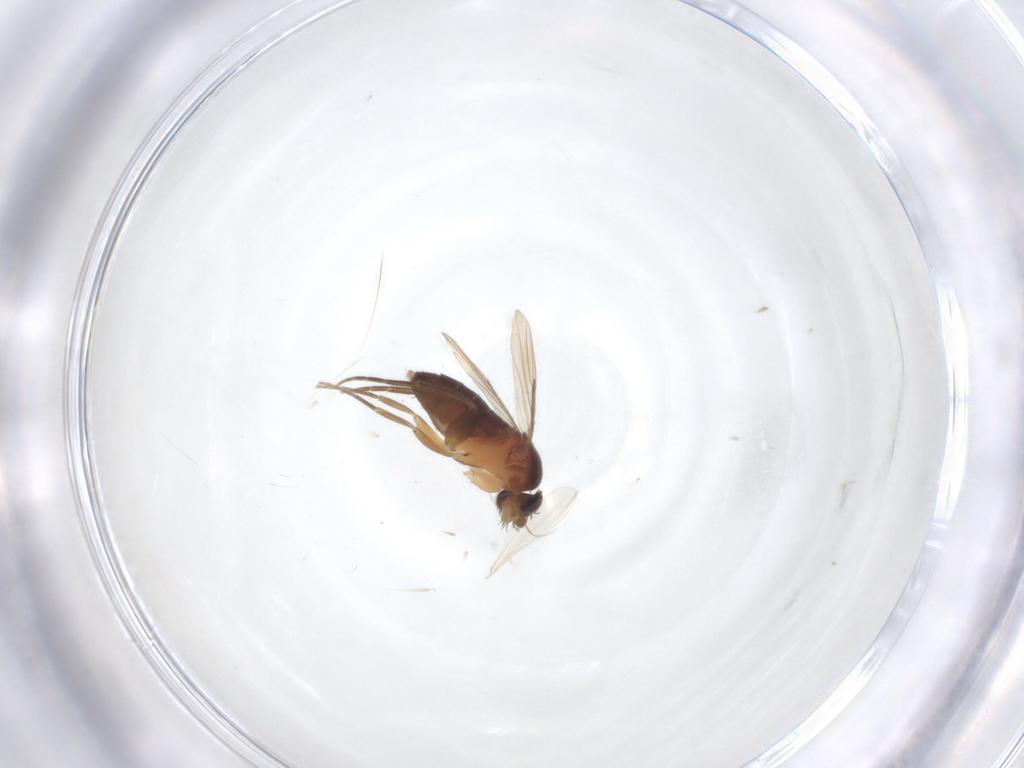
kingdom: Animalia
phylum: Arthropoda
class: Insecta
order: Diptera
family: Sciaridae
